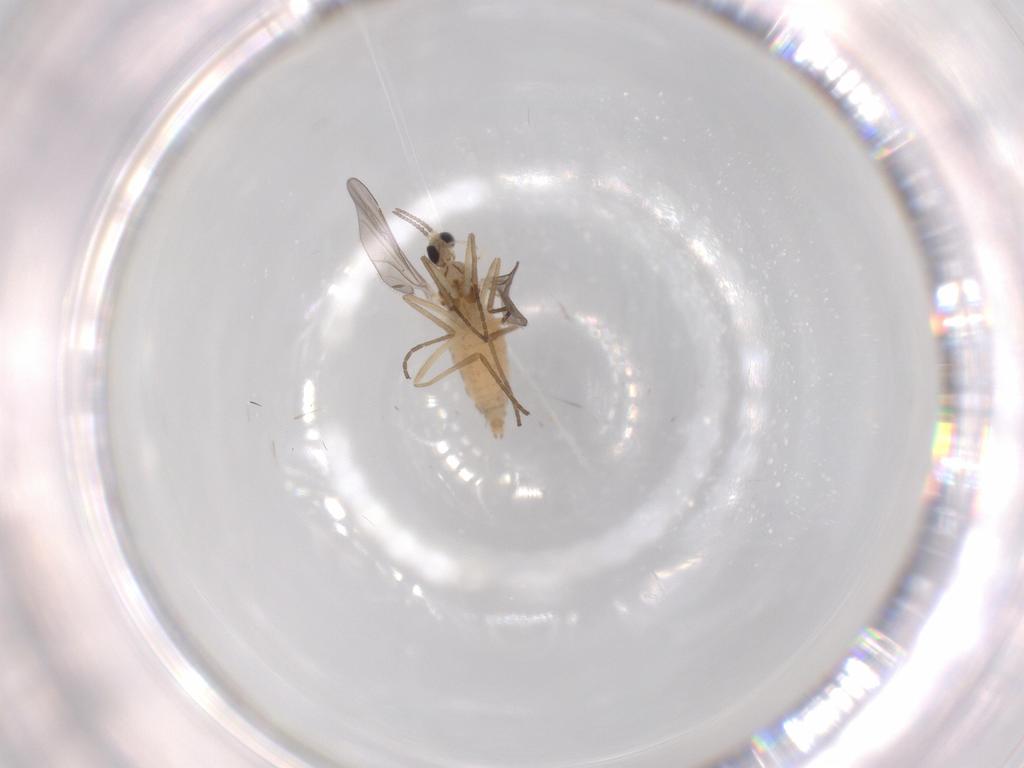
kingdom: Animalia
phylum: Arthropoda
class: Insecta
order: Diptera
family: Cecidomyiidae
